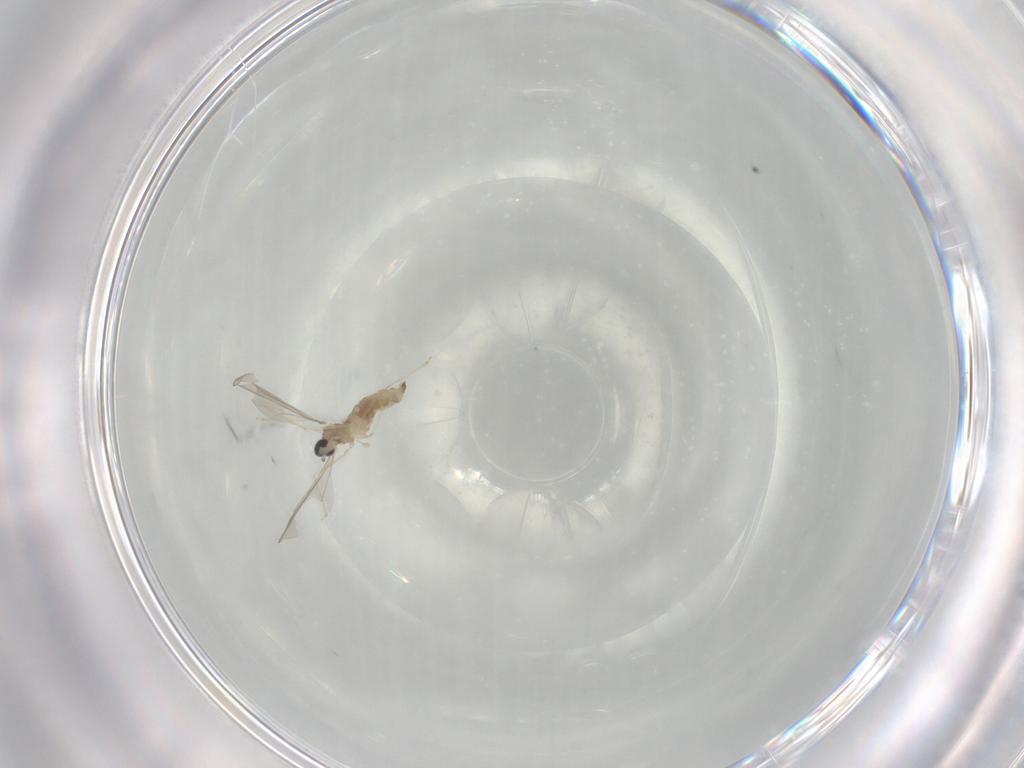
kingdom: Animalia
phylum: Arthropoda
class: Insecta
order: Diptera
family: Cecidomyiidae
